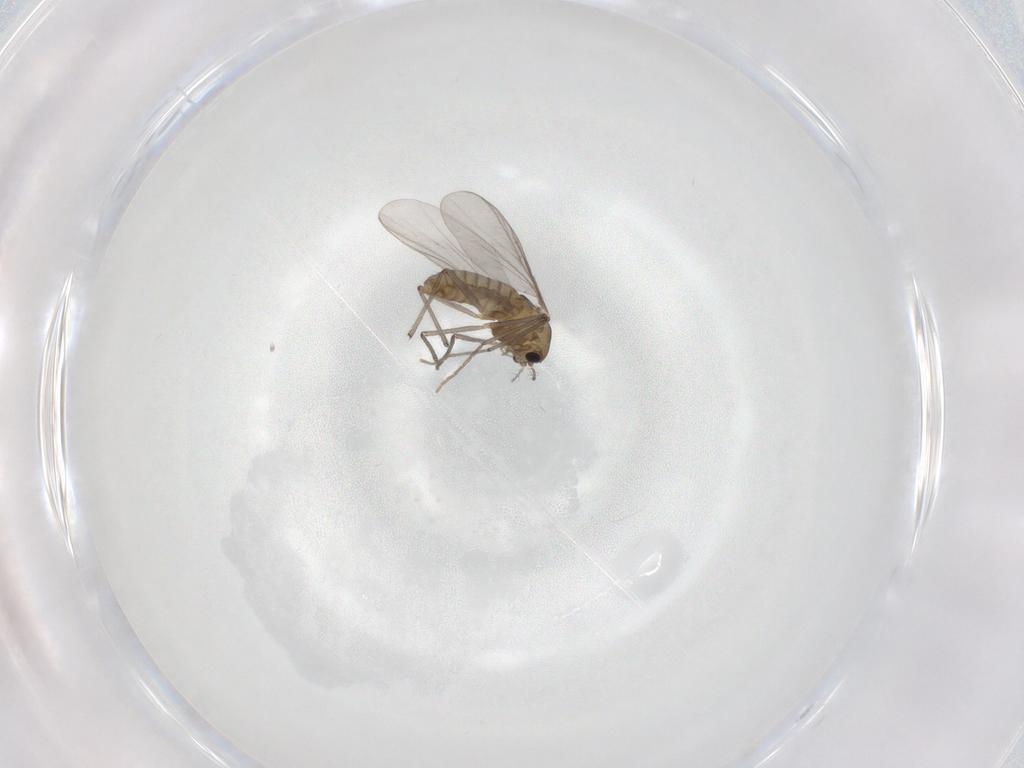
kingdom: Animalia
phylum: Arthropoda
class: Insecta
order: Diptera
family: Chironomidae
